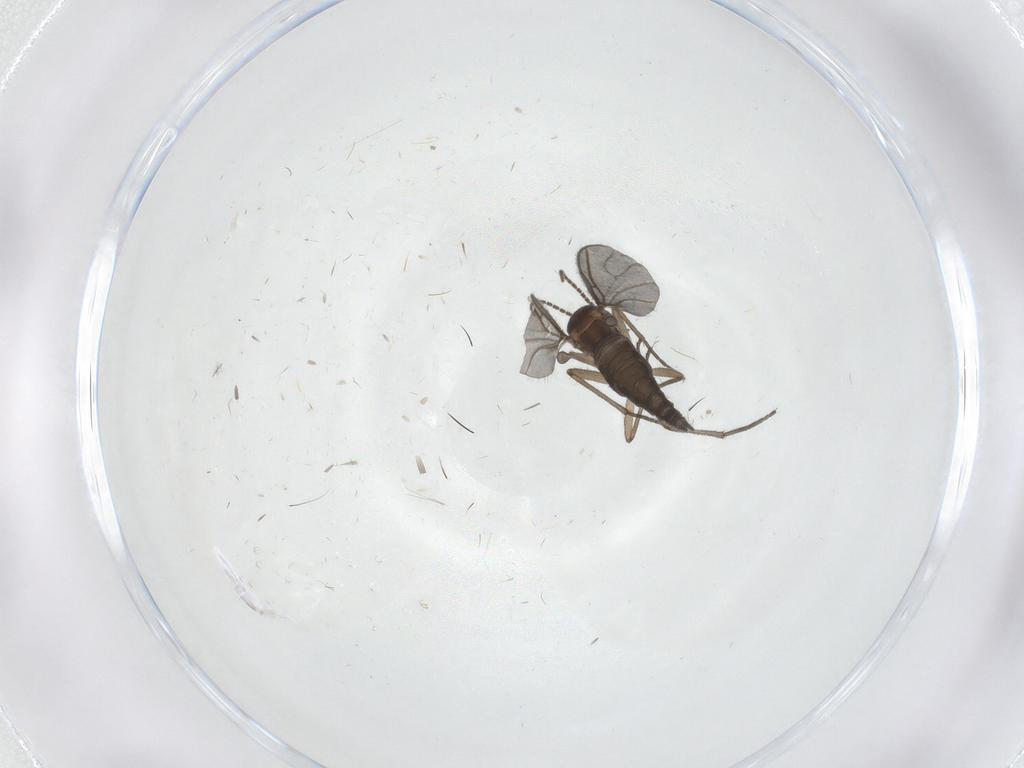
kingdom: Animalia
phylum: Arthropoda
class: Insecta
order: Diptera
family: Sciaridae
